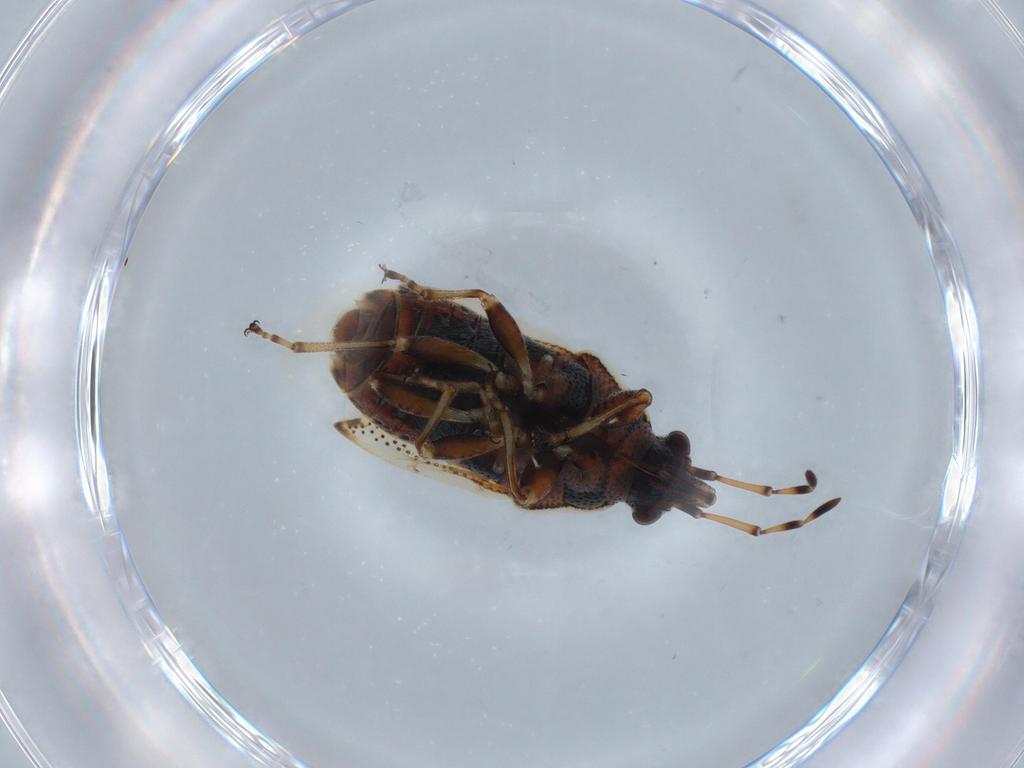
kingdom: Animalia
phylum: Arthropoda
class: Insecta
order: Hemiptera
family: Rhyparochromidae
